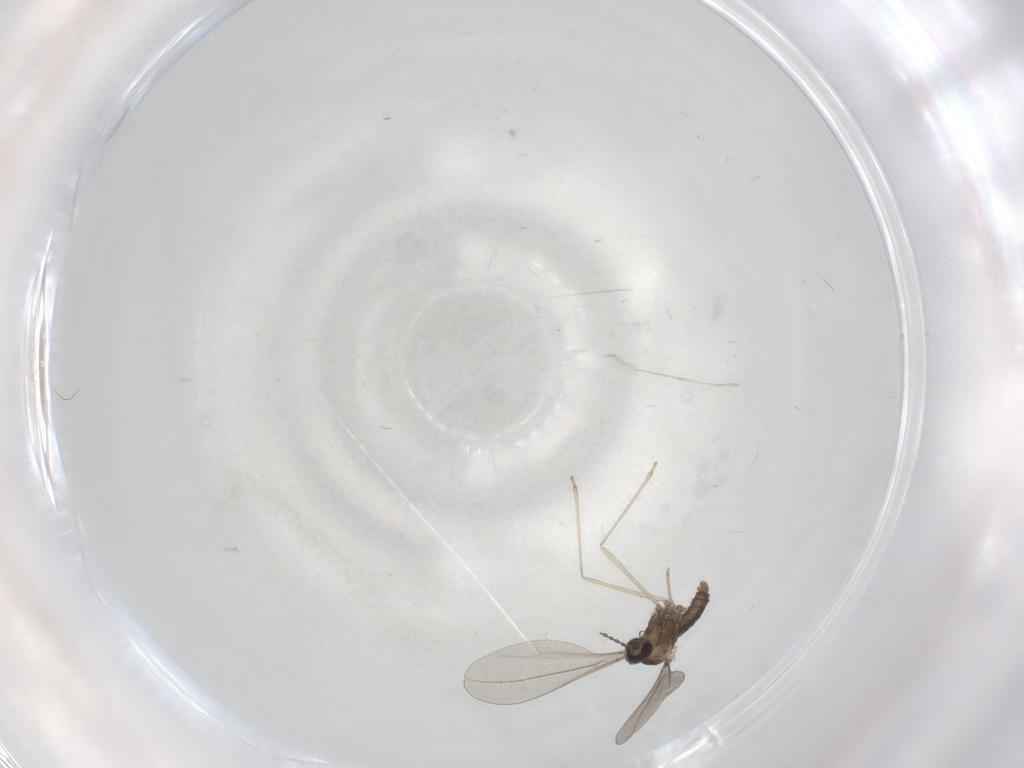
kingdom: Animalia
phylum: Arthropoda
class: Insecta
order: Diptera
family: Cecidomyiidae
